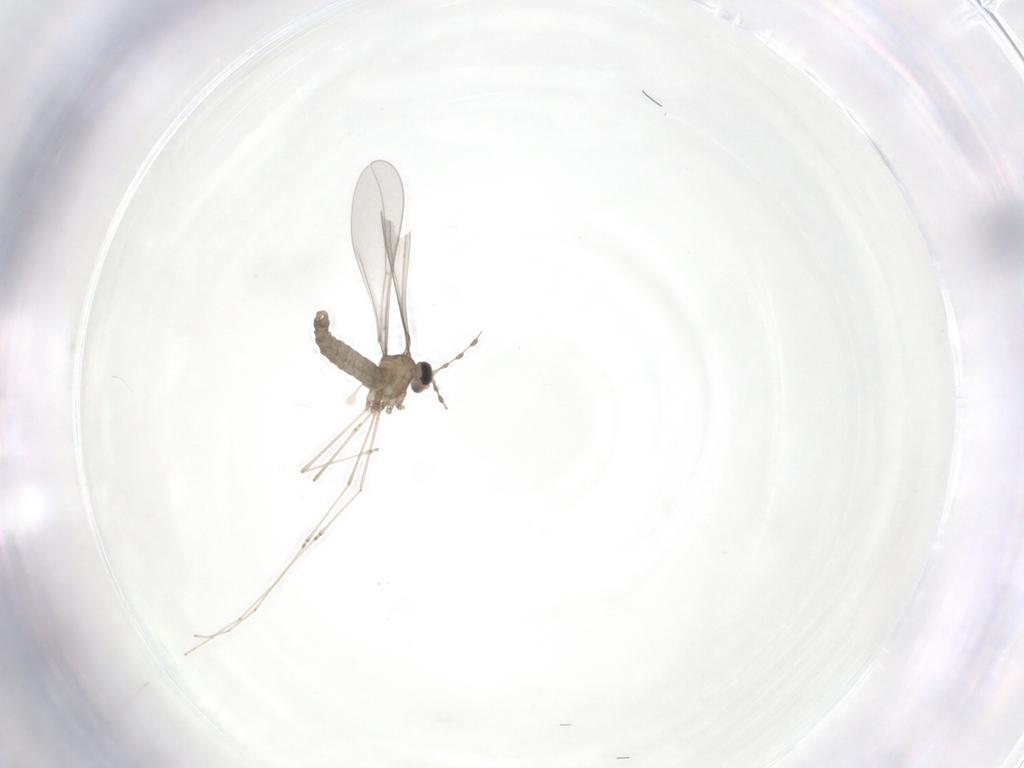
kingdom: Animalia
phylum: Arthropoda
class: Insecta
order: Diptera
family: Cecidomyiidae
